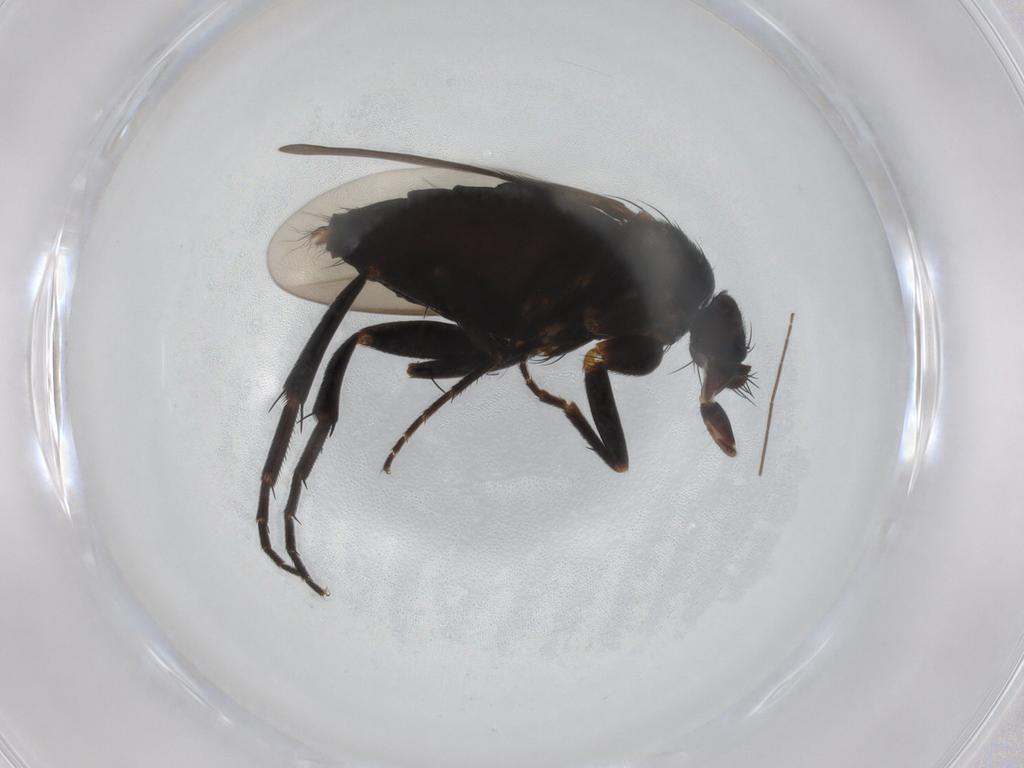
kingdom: Animalia
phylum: Arthropoda
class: Insecta
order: Diptera
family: Phoridae
